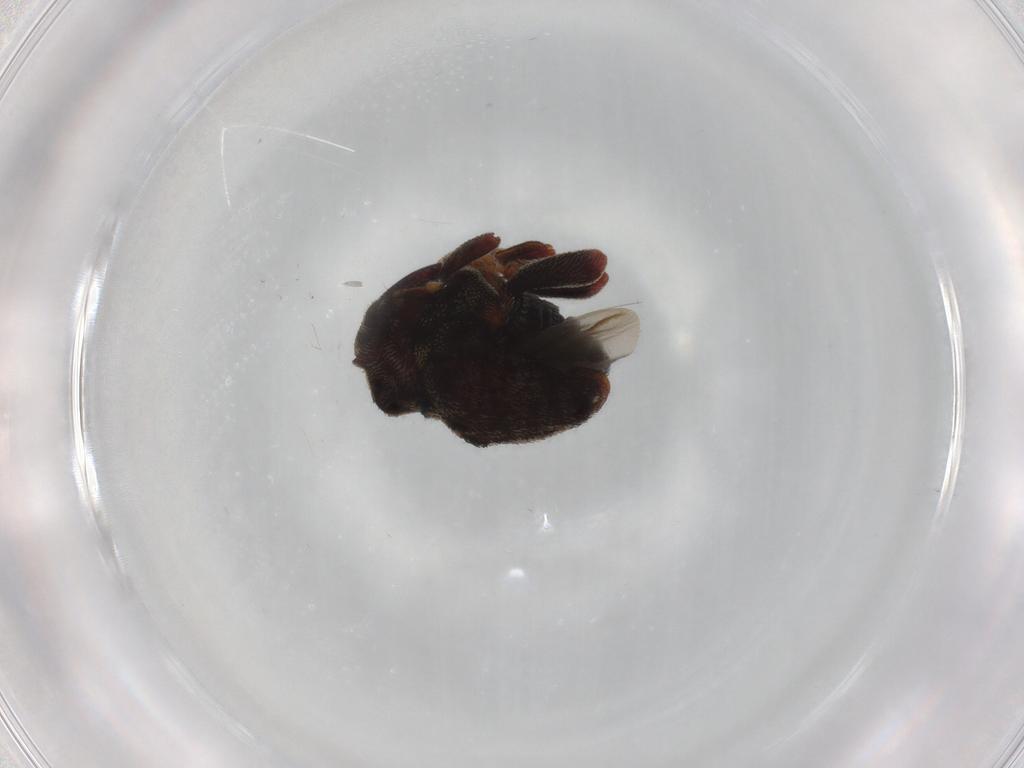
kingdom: Animalia
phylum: Arthropoda
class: Insecta
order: Coleoptera
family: Curculionidae
